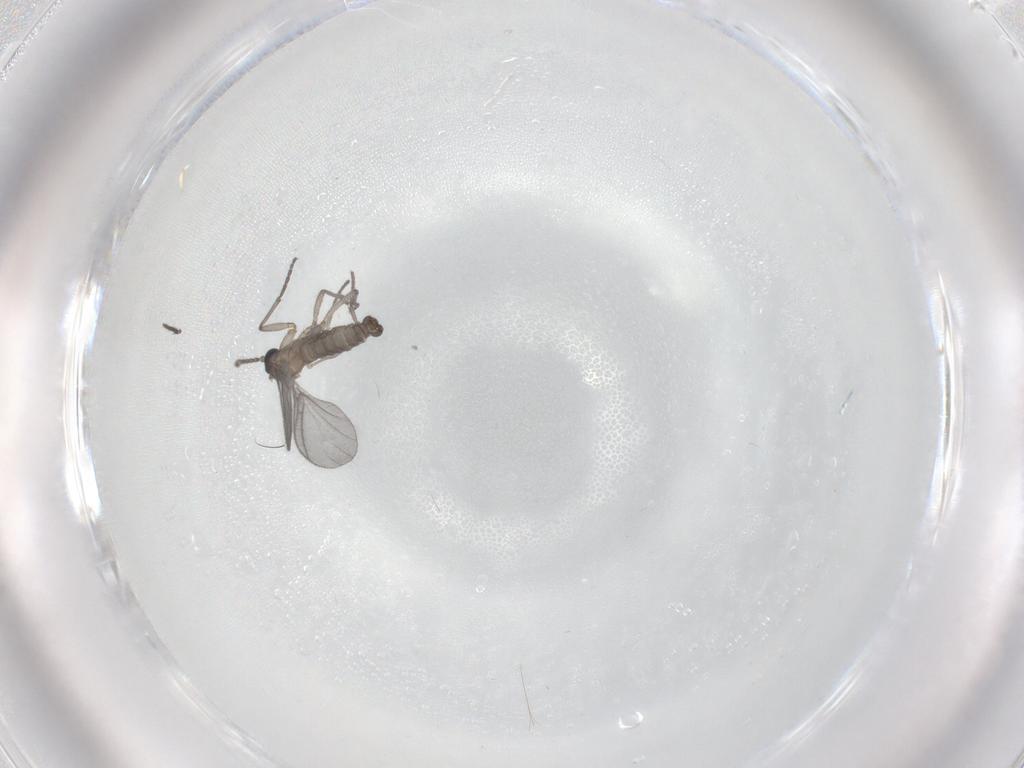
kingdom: Animalia
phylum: Arthropoda
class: Insecta
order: Diptera
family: Sciaridae
